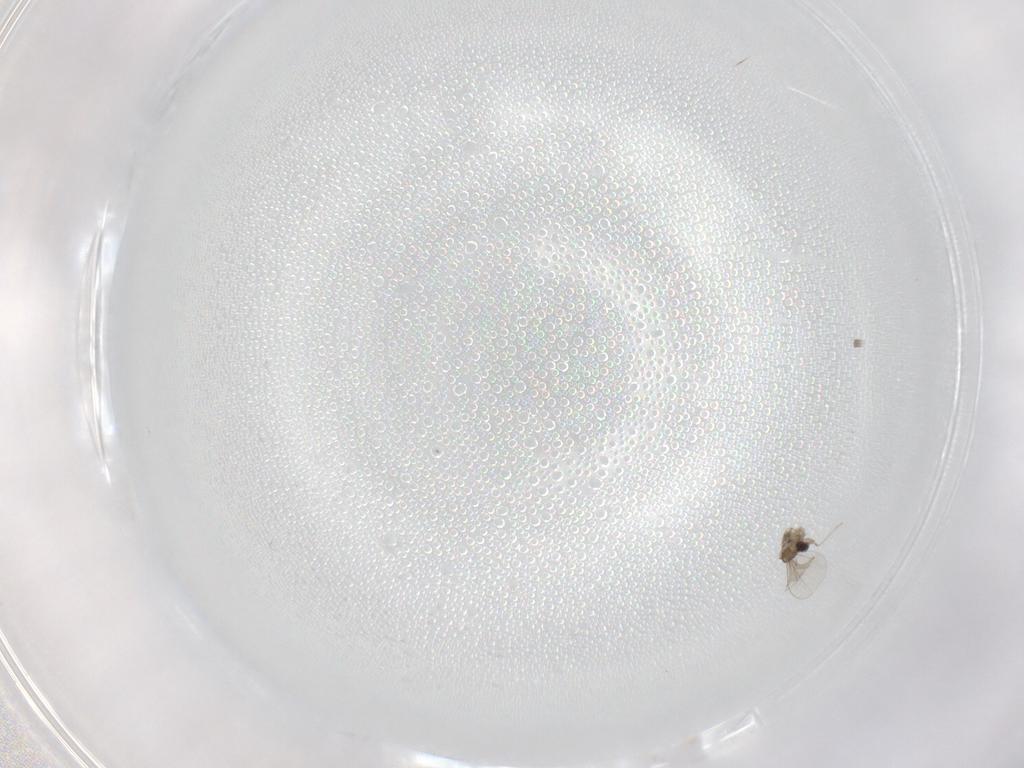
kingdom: Animalia
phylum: Arthropoda
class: Insecta
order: Diptera
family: Cecidomyiidae
